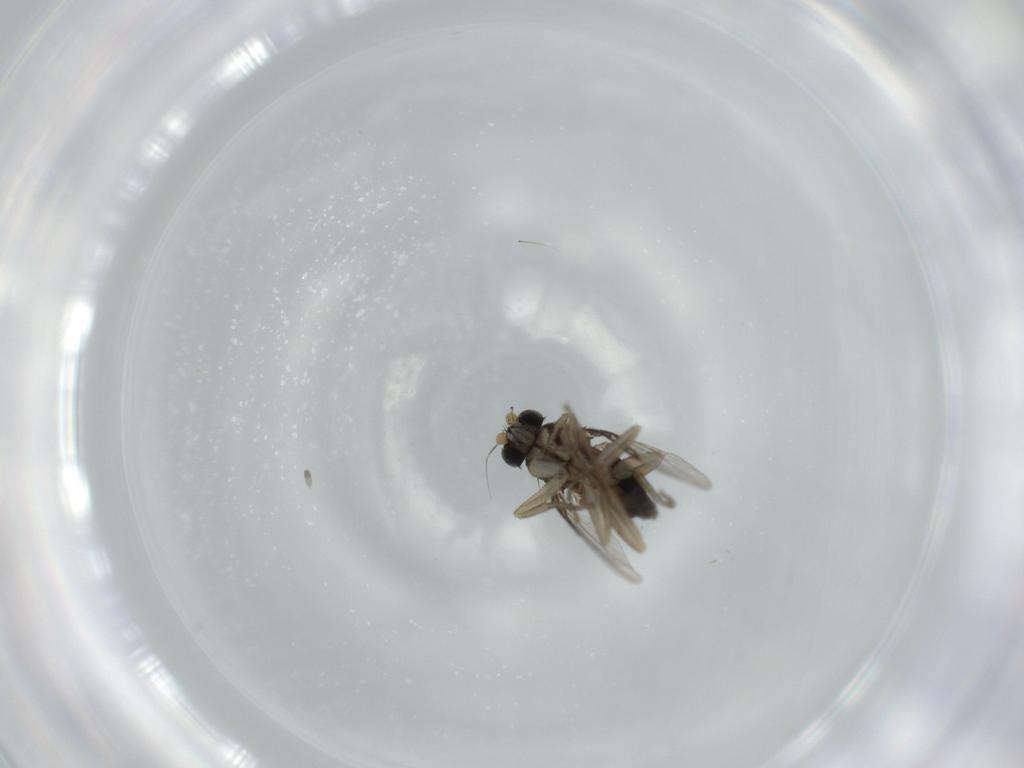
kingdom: Animalia
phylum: Arthropoda
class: Insecta
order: Diptera
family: Phoridae
